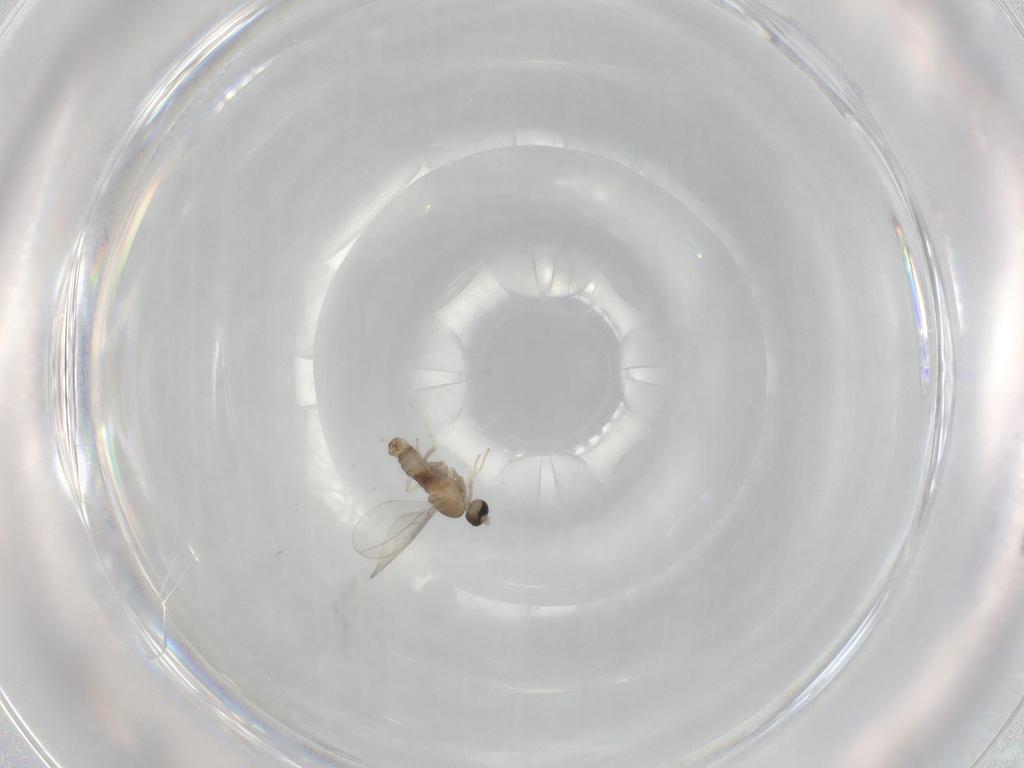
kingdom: Animalia
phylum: Arthropoda
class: Insecta
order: Diptera
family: Cecidomyiidae
